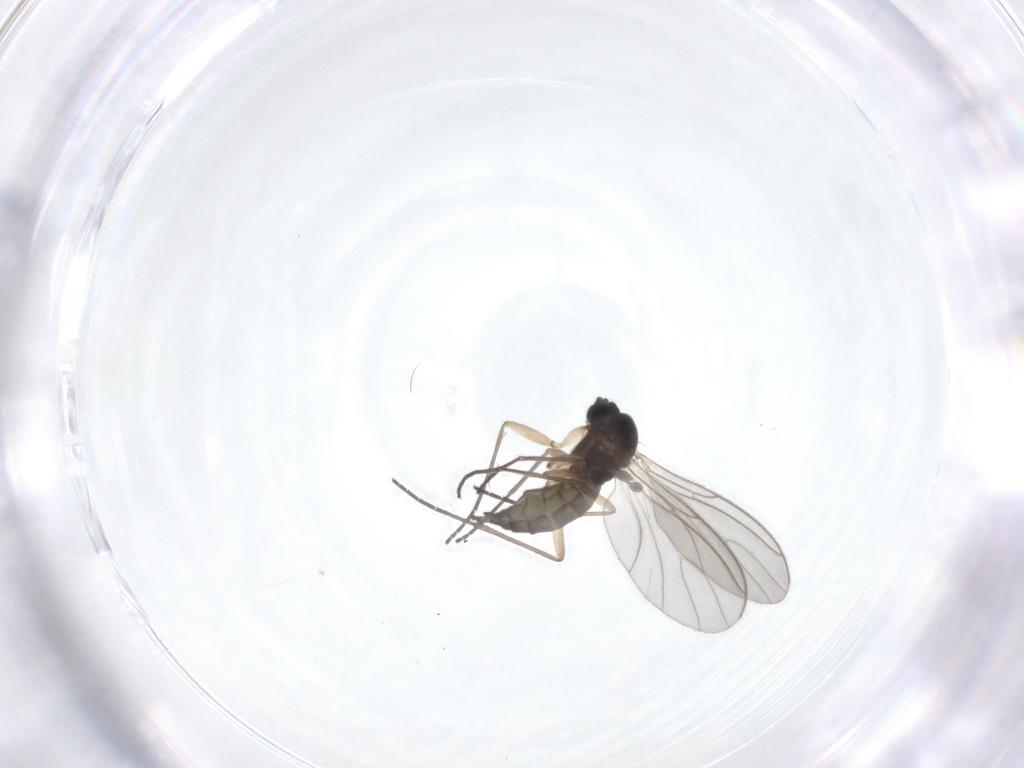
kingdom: Animalia
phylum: Arthropoda
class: Insecta
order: Diptera
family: Sciaridae
